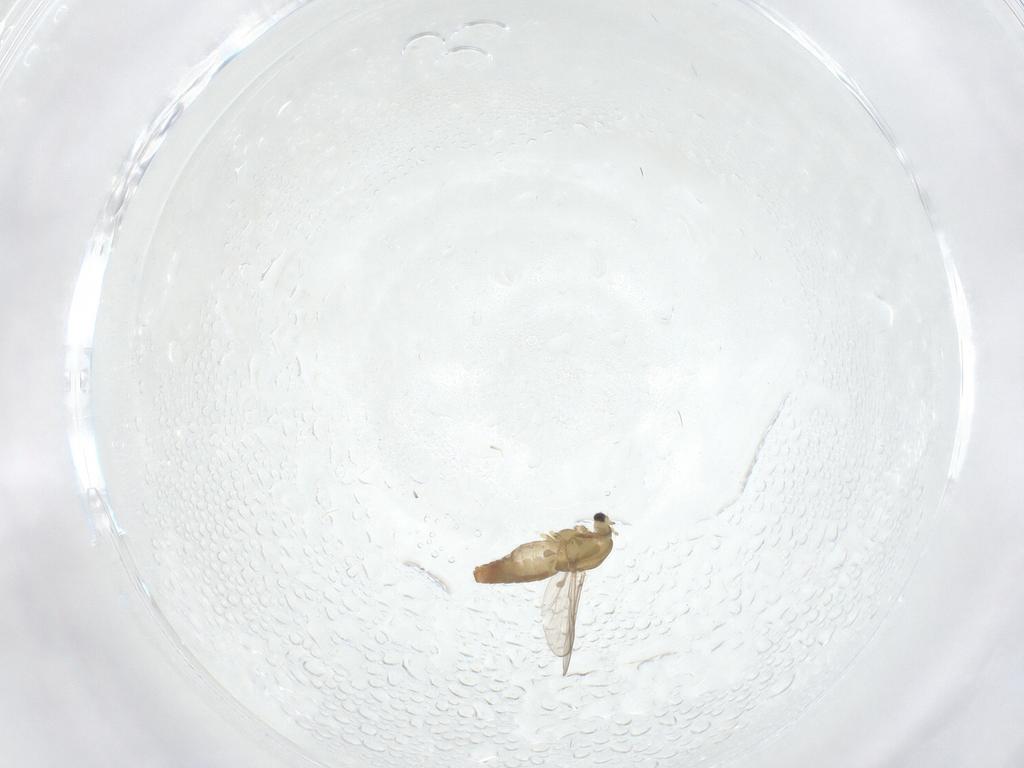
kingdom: Animalia
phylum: Arthropoda
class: Insecta
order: Diptera
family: Chironomidae
